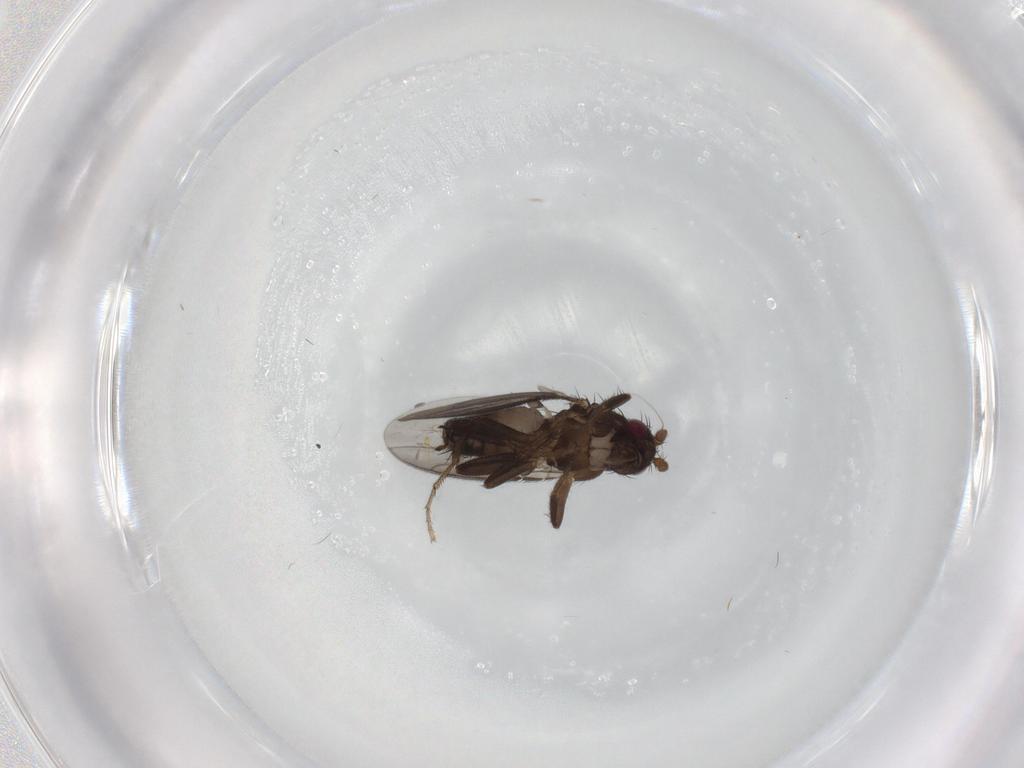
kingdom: Animalia
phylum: Arthropoda
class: Insecta
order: Diptera
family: Sphaeroceridae
